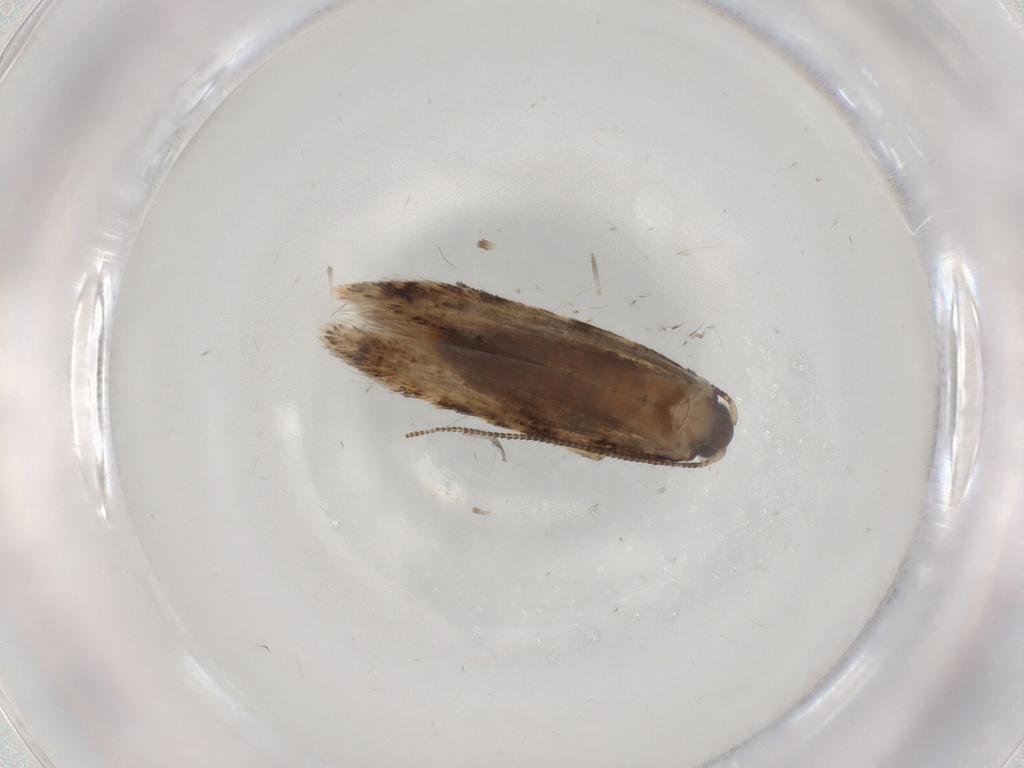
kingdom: Animalia
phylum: Arthropoda
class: Insecta
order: Lepidoptera
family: Tineidae
